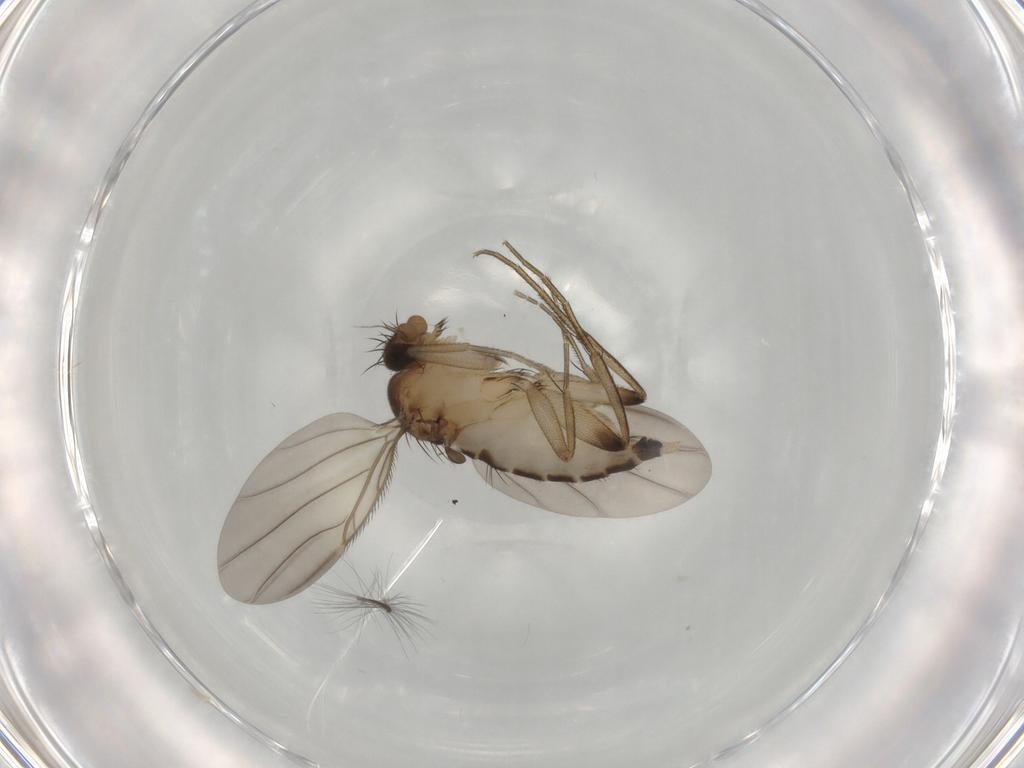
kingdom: Animalia
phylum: Arthropoda
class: Insecta
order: Diptera
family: Phoridae
